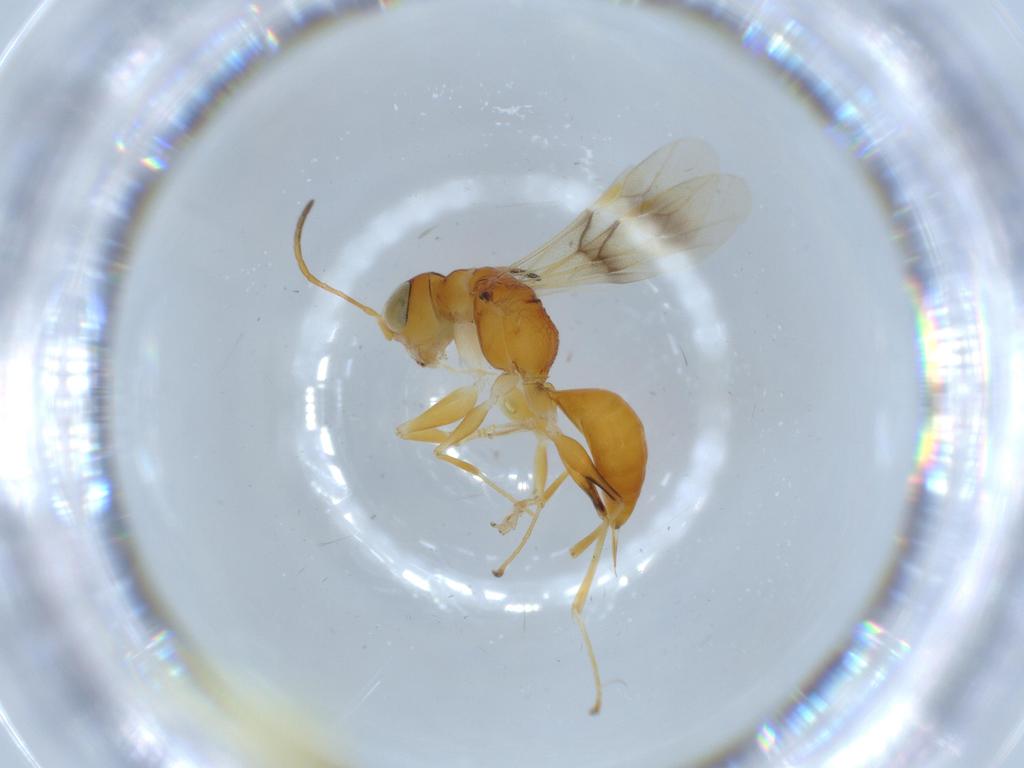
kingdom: Animalia
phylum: Arthropoda
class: Insecta
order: Hymenoptera
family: Dryinidae
